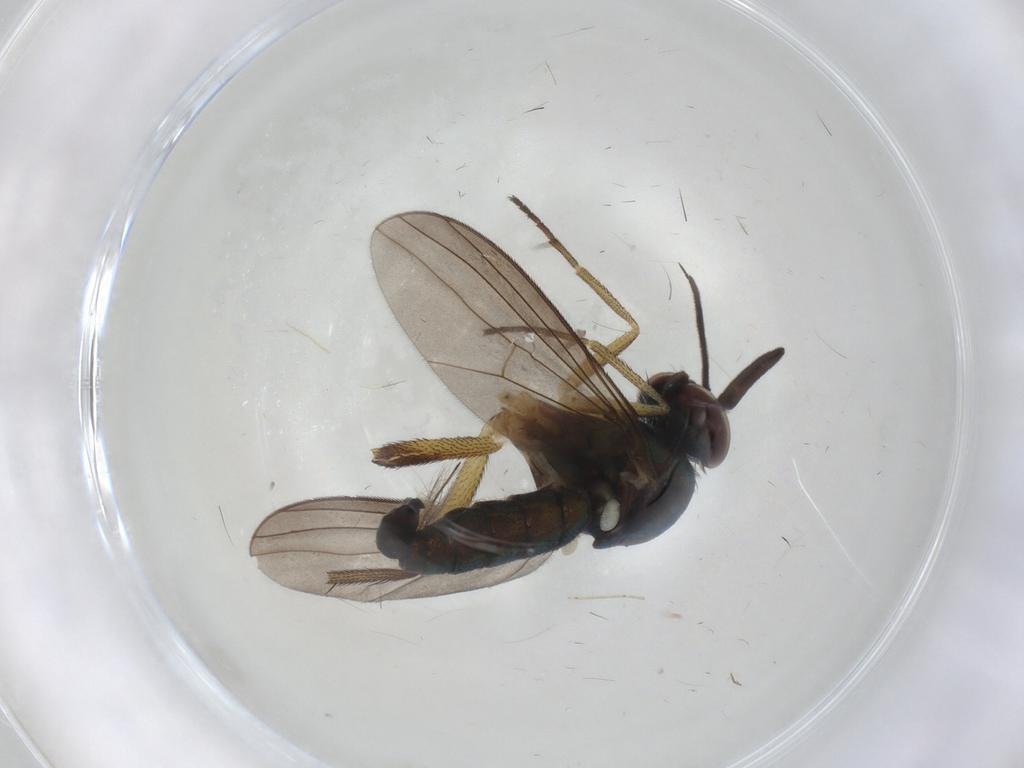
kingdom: Animalia
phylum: Arthropoda
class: Insecta
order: Diptera
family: Dolichopodidae
